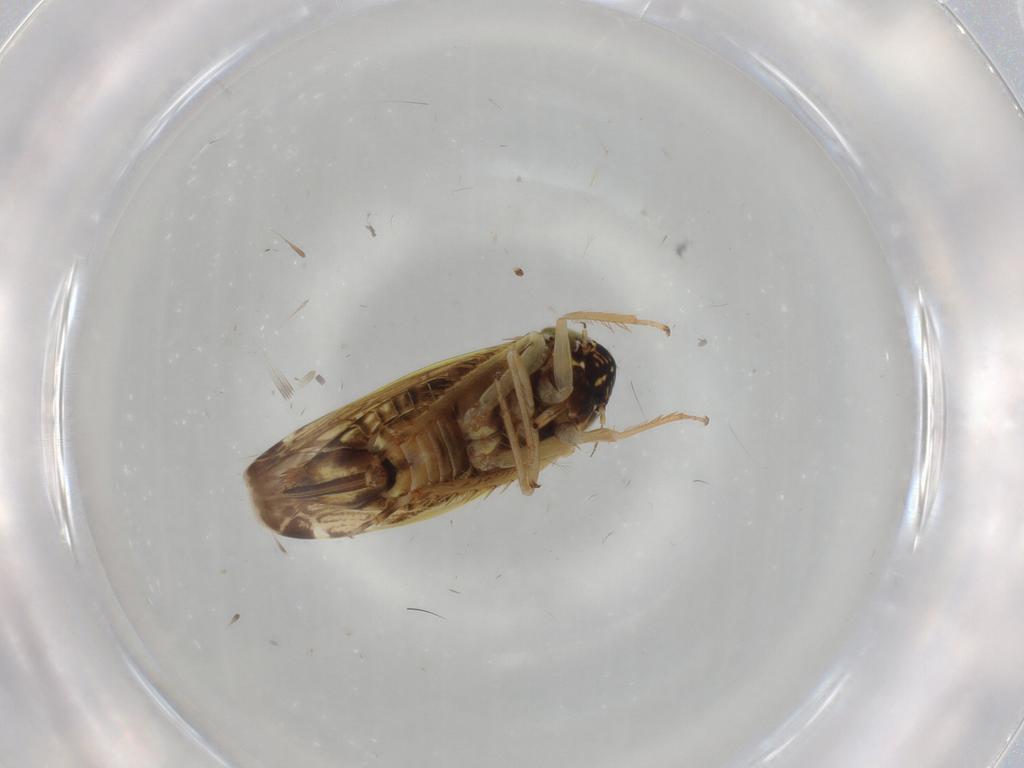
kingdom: Animalia
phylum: Arthropoda
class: Insecta
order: Hemiptera
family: Cicadellidae
